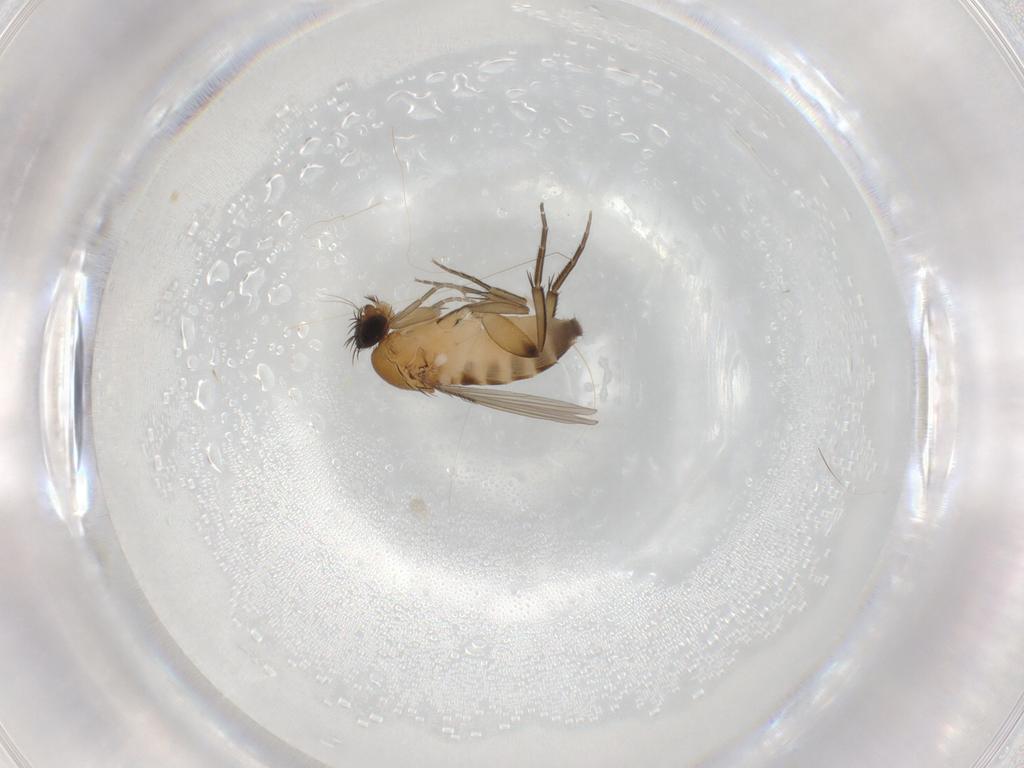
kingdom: Animalia
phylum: Arthropoda
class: Insecta
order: Diptera
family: Phoridae
